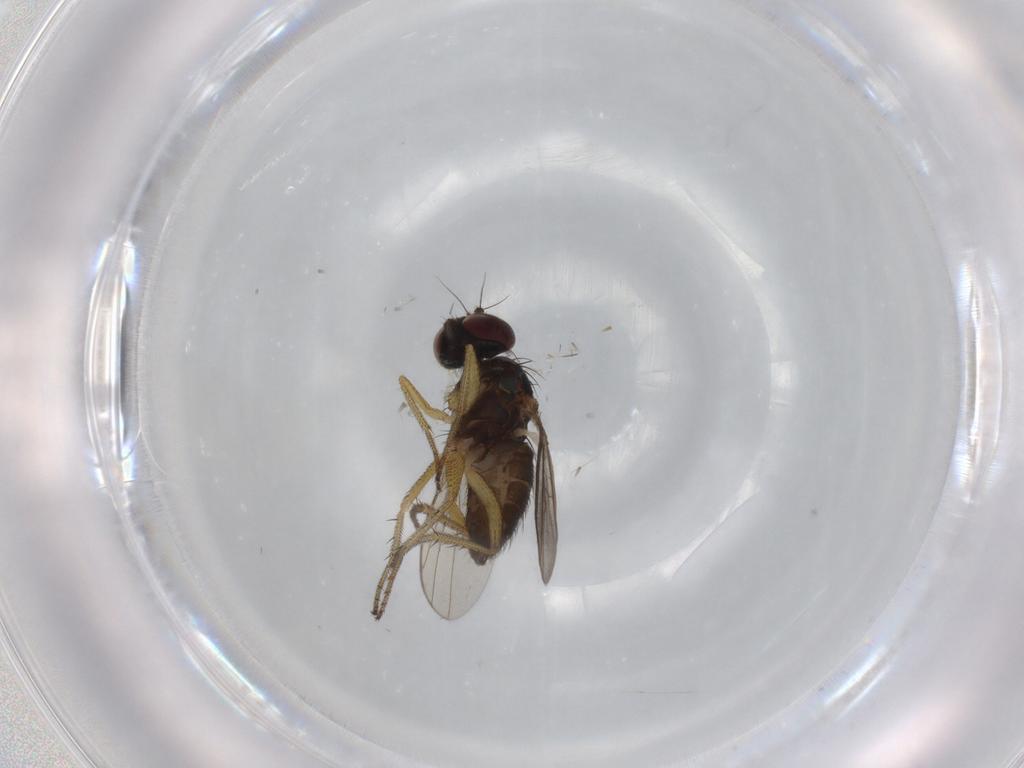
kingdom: Animalia
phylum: Arthropoda
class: Insecta
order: Diptera
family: Dolichopodidae
